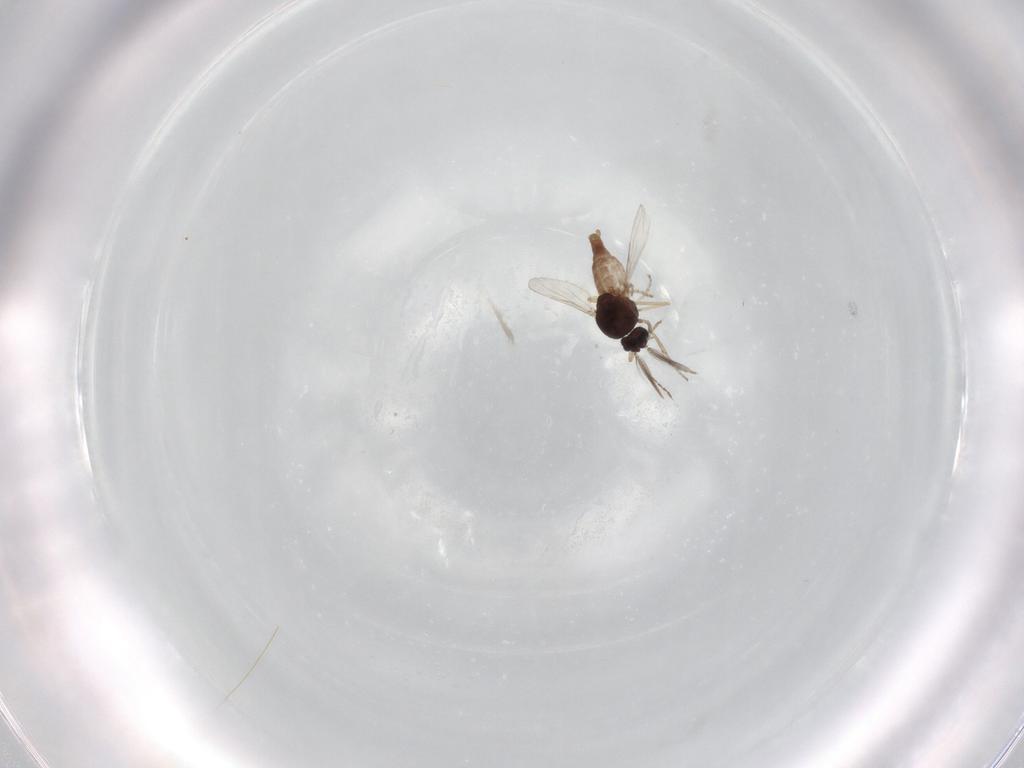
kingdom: Animalia
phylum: Arthropoda
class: Insecta
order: Diptera
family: Ceratopogonidae
